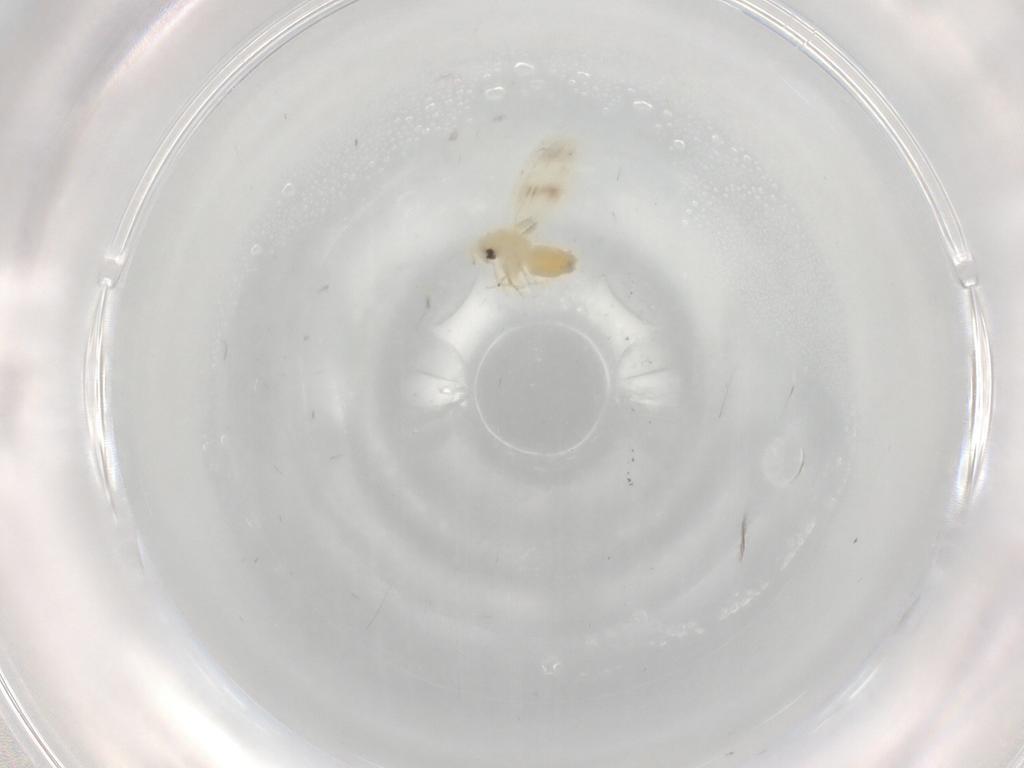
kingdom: Animalia
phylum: Arthropoda
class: Insecta
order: Hemiptera
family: Aleyrodidae
